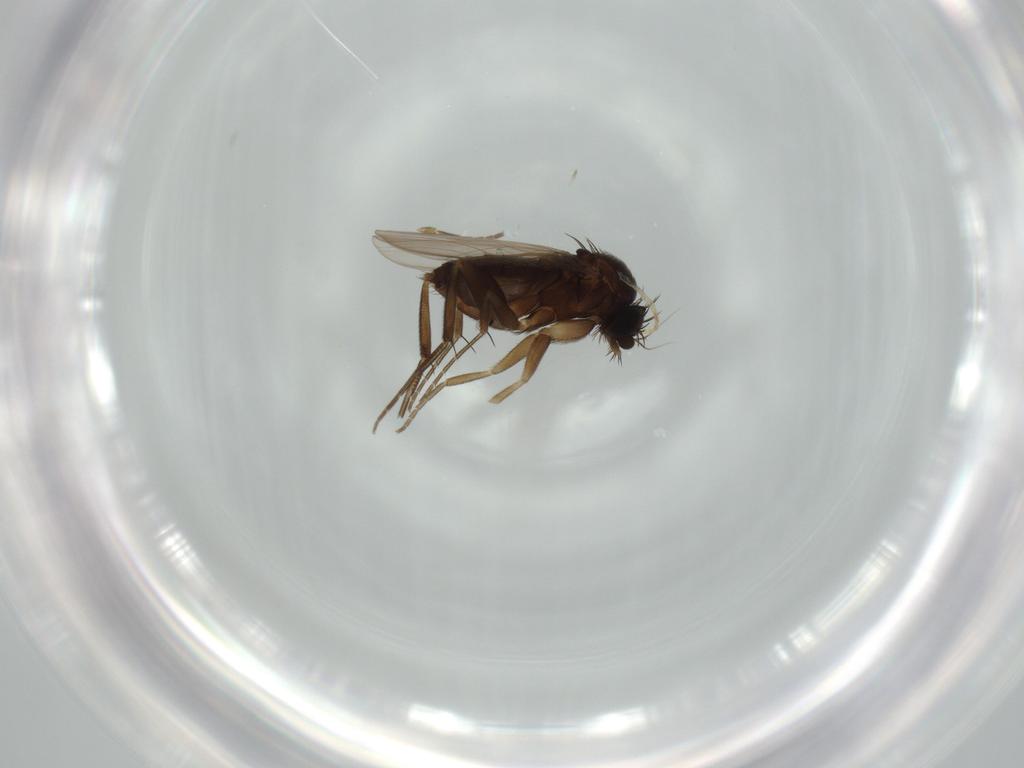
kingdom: Animalia
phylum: Arthropoda
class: Insecta
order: Diptera
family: Phoridae
